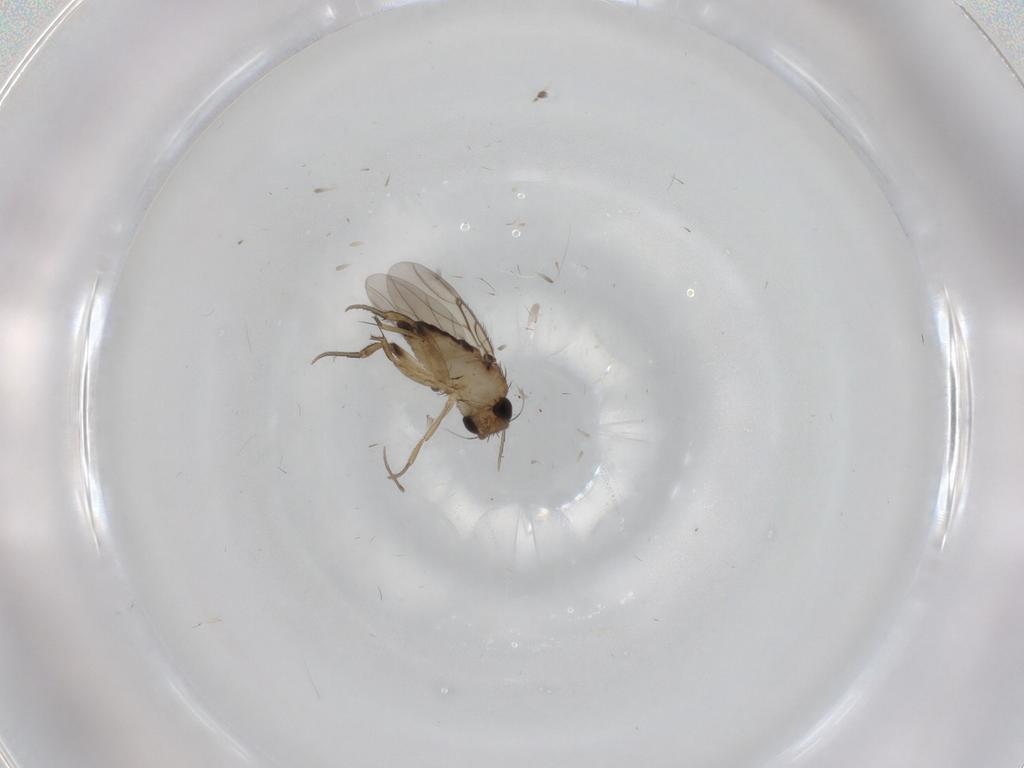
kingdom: Animalia
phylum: Arthropoda
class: Insecta
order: Diptera
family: Phoridae
